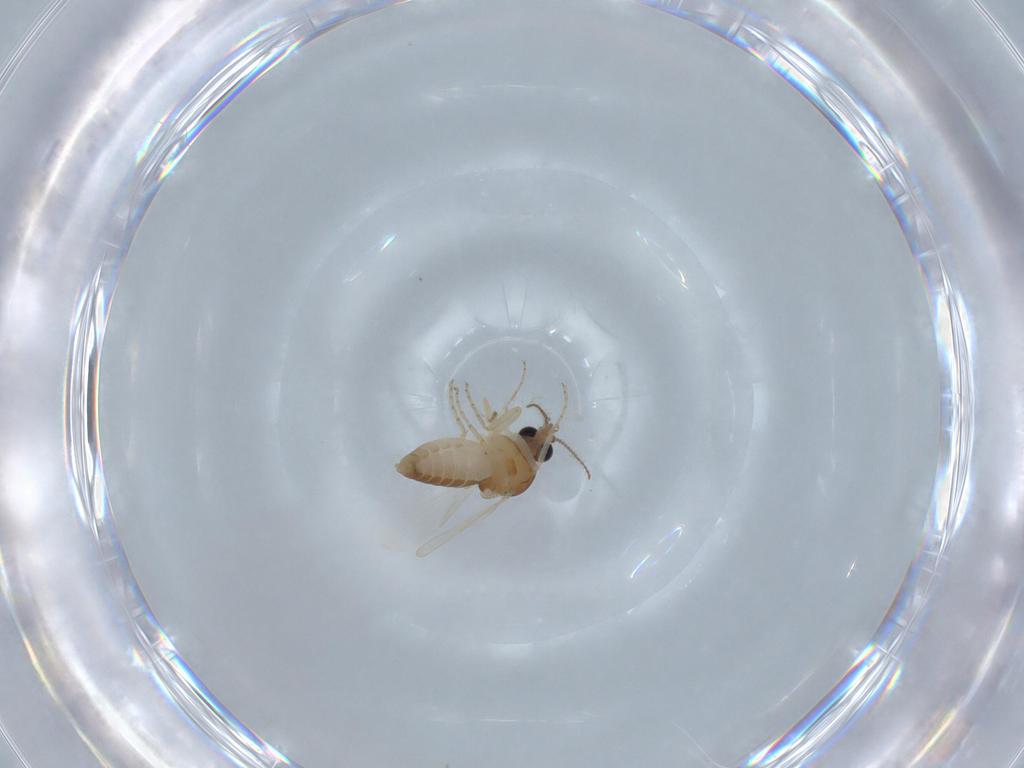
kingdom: Animalia
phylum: Arthropoda
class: Insecta
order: Diptera
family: Ceratopogonidae
